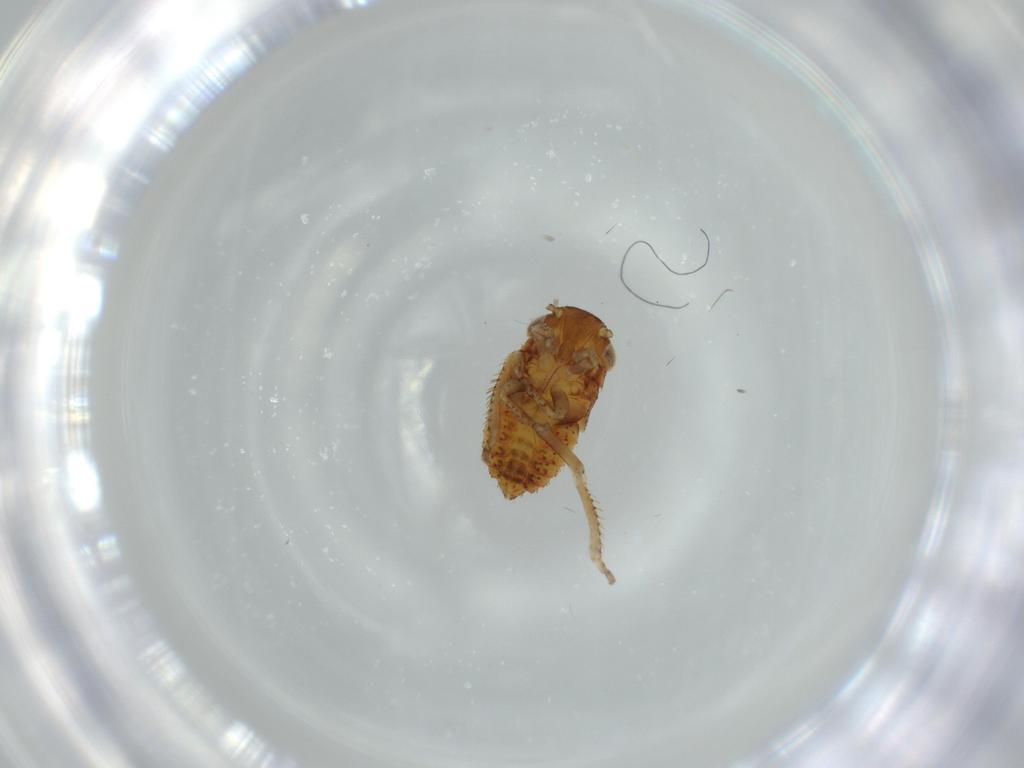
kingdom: Animalia
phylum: Arthropoda
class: Insecta
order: Hemiptera
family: Cicadellidae
